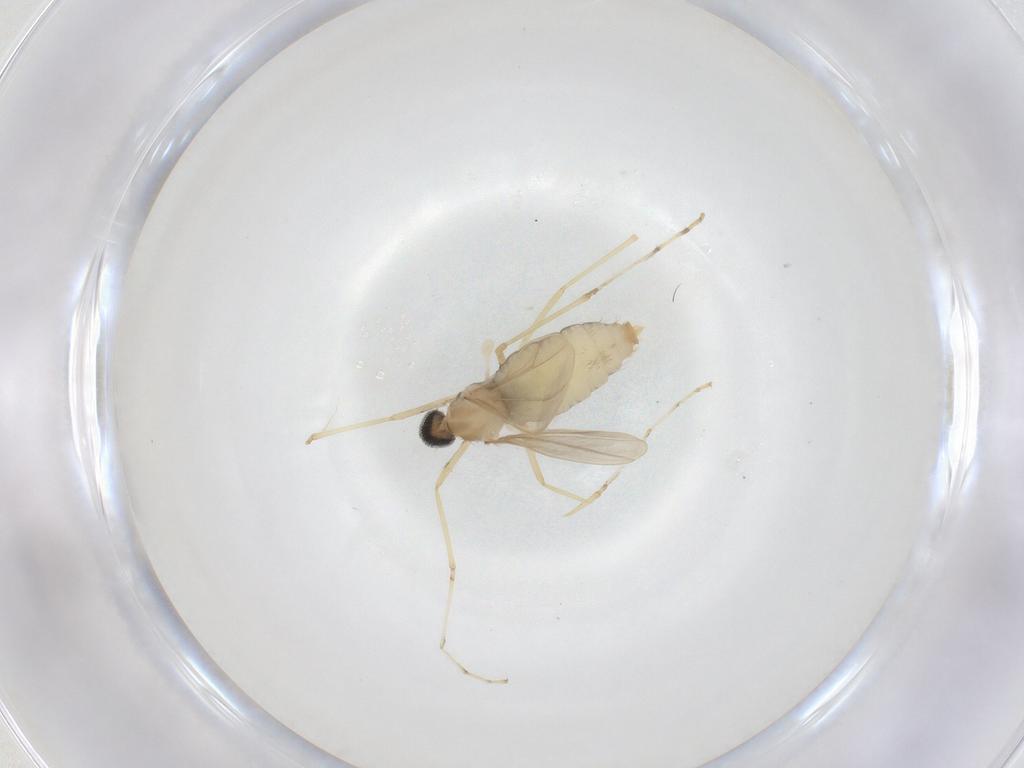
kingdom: Animalia
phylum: Arthropoda
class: Insecta
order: Diptera
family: Cecidomyiidae
